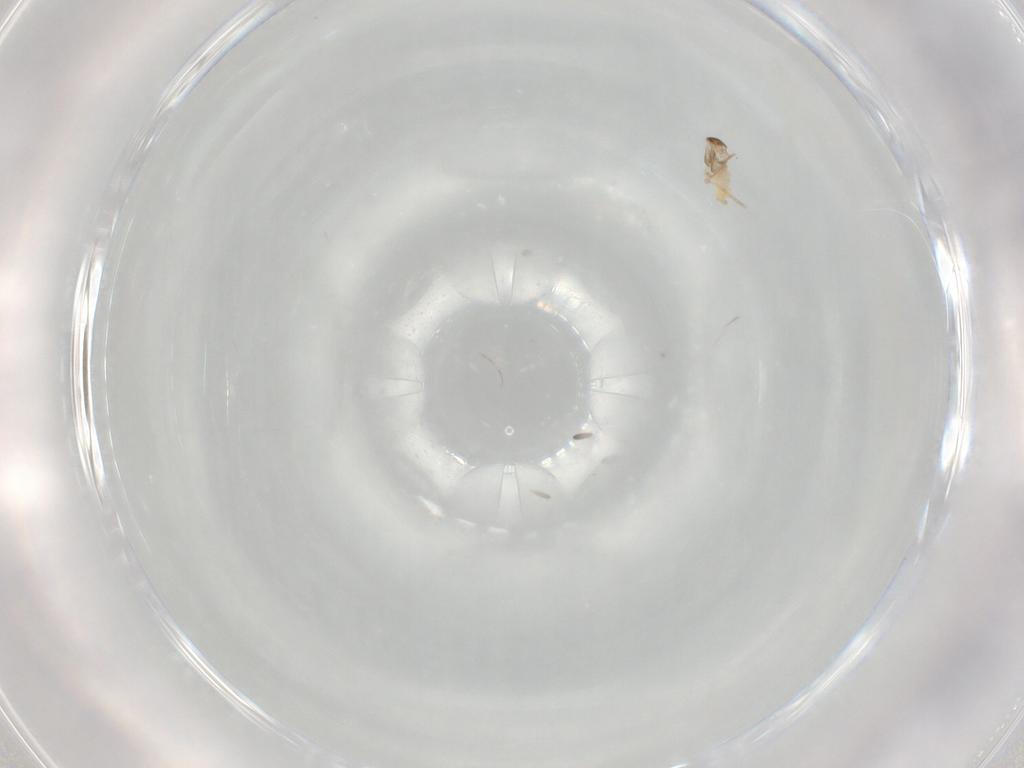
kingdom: Animalia
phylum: Arthropoda
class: Insecta
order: Diptera
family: Cecidomyiidae
